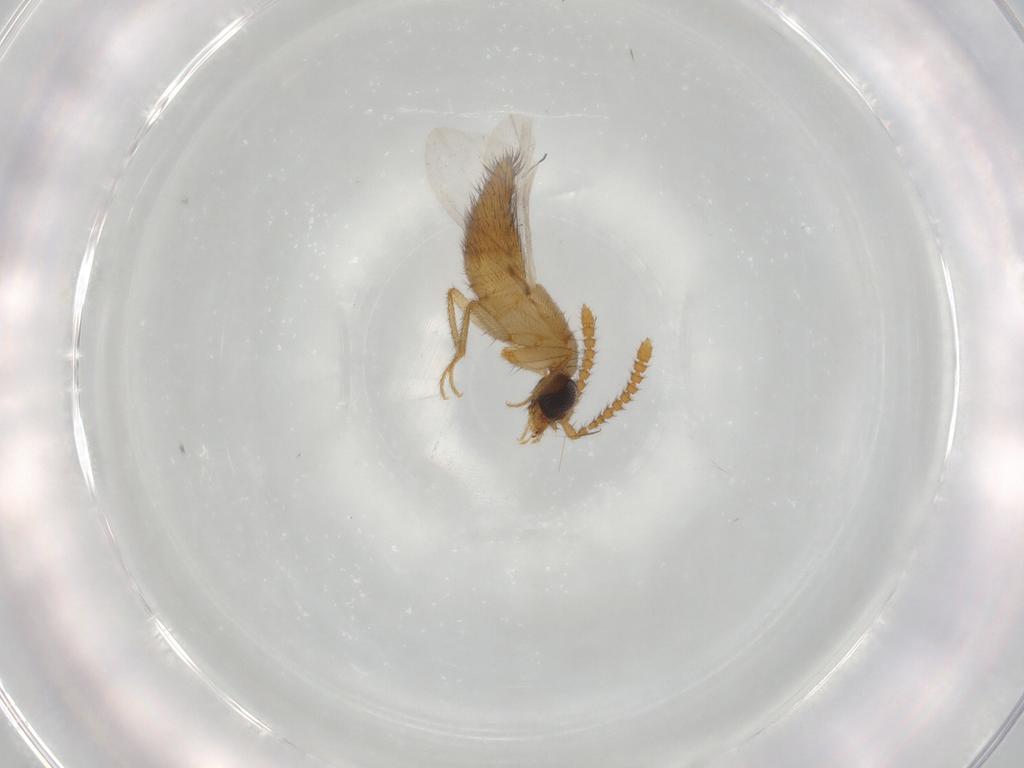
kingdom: Animalia
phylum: Arthropoda
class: Insecta
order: Coleoptera
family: Staphylinidae
